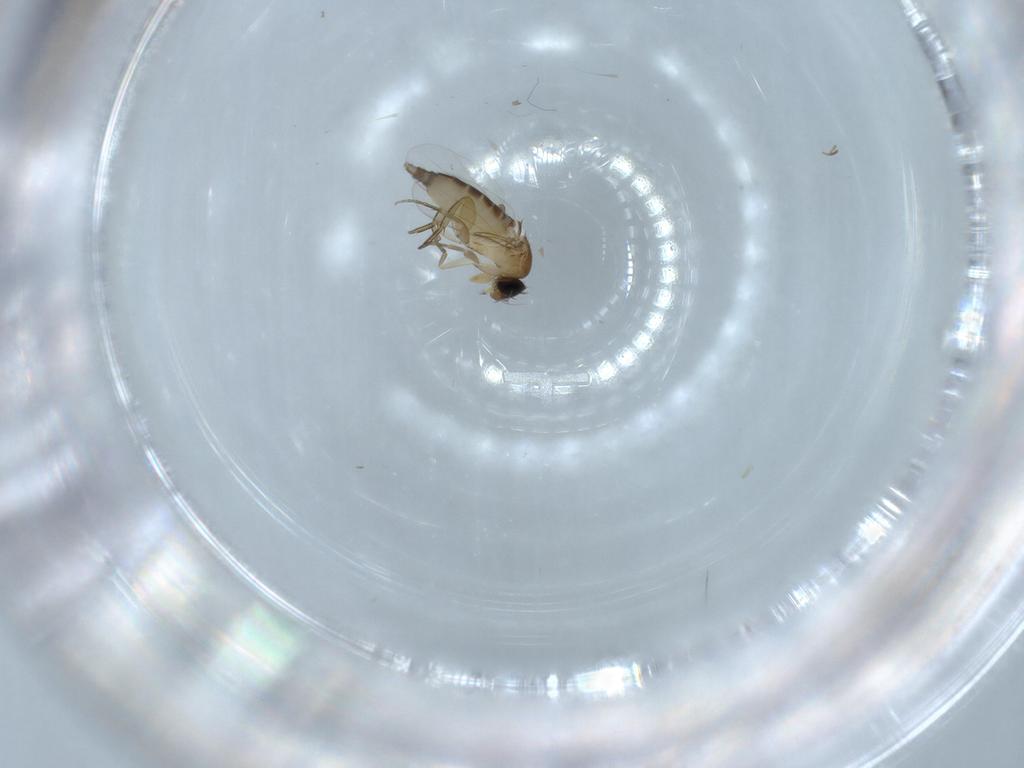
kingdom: Animalia
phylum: Arthropoda
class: Insecta
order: Diptera
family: Phoridae
